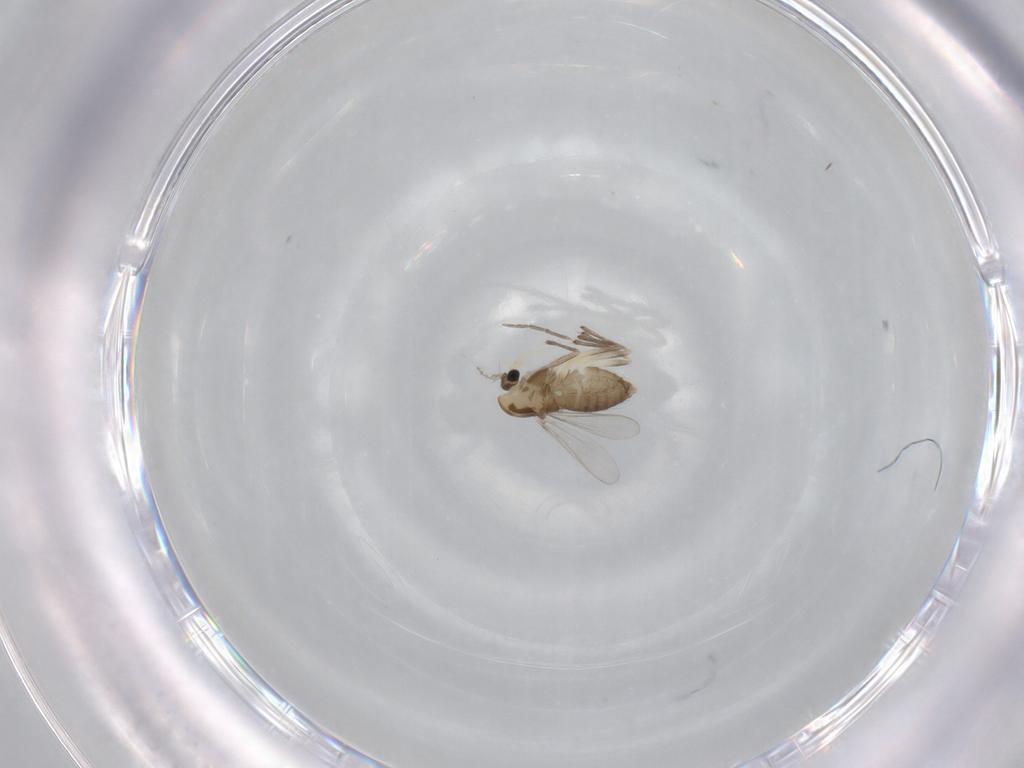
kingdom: Animalia
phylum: Arthropoda
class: Insecta
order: Diptera
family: Chironomidae
